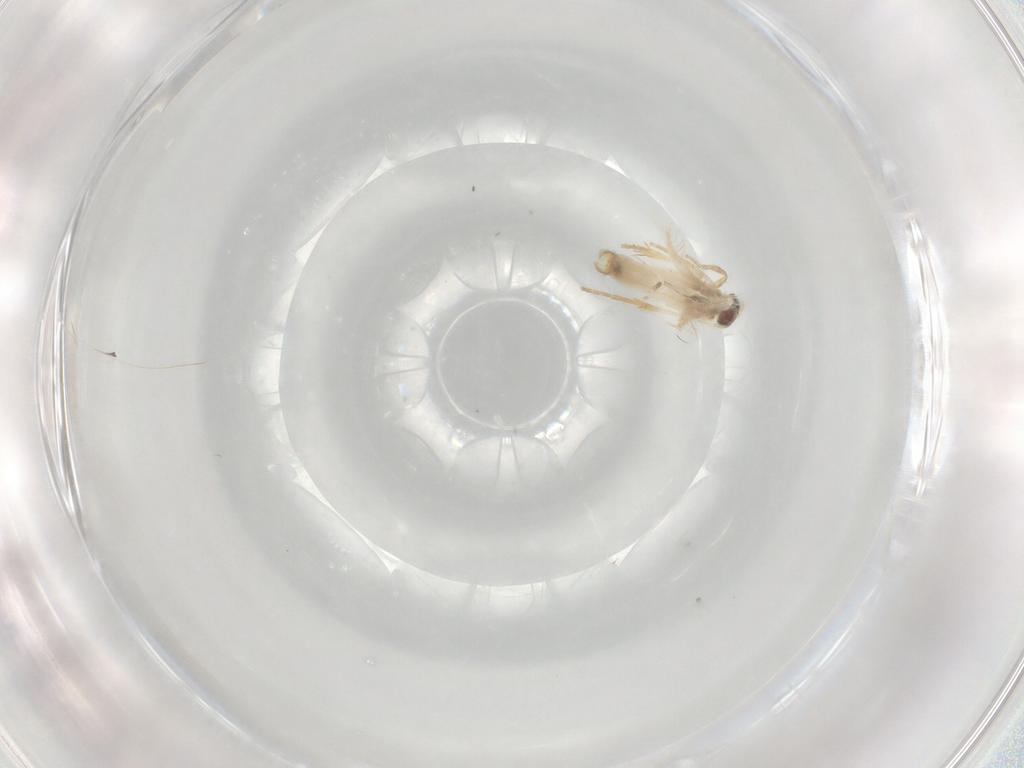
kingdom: Animalia
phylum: Arthropoda
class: Insecta
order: Lepidoptera
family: Nepticulidae
